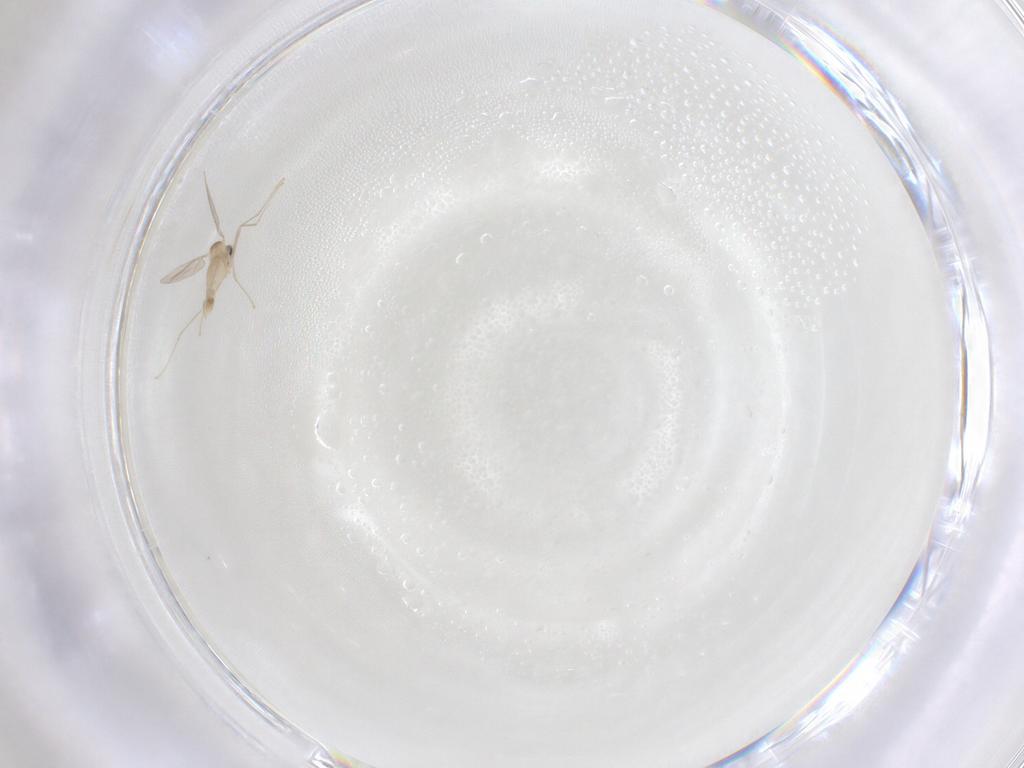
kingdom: Animalia
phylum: Arthropoda
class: Insecta
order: Diptera
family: Cecidomyiidae
